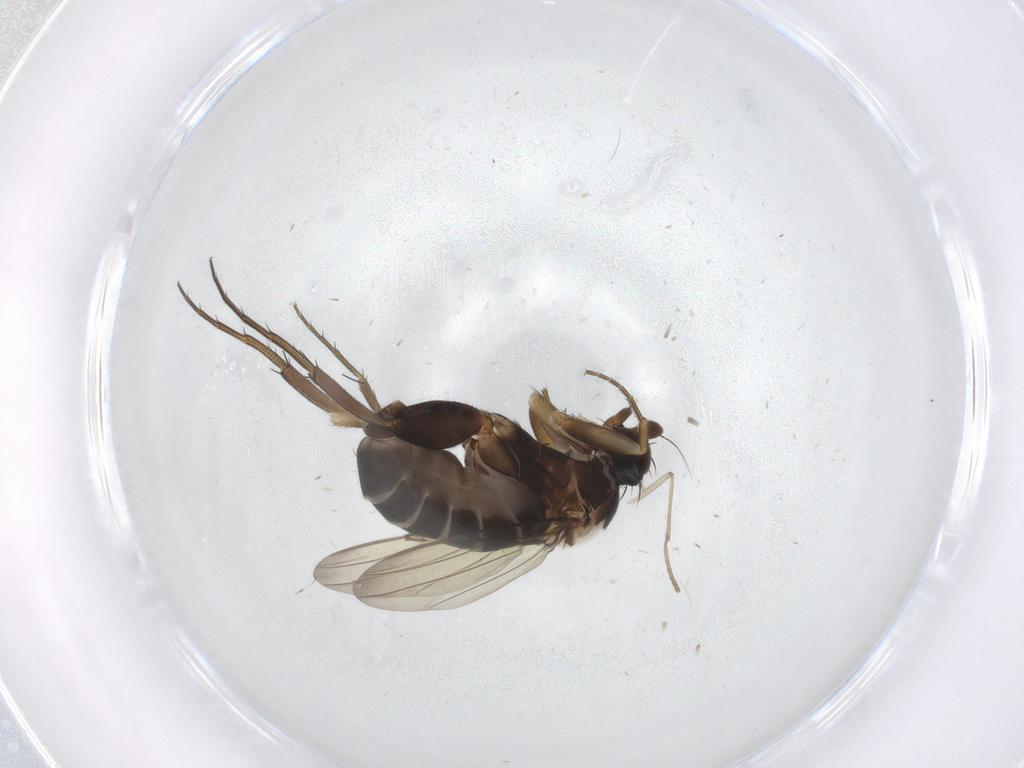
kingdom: Animalia
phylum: Arthropoda
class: Insecta
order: Diptera
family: Phoridae
